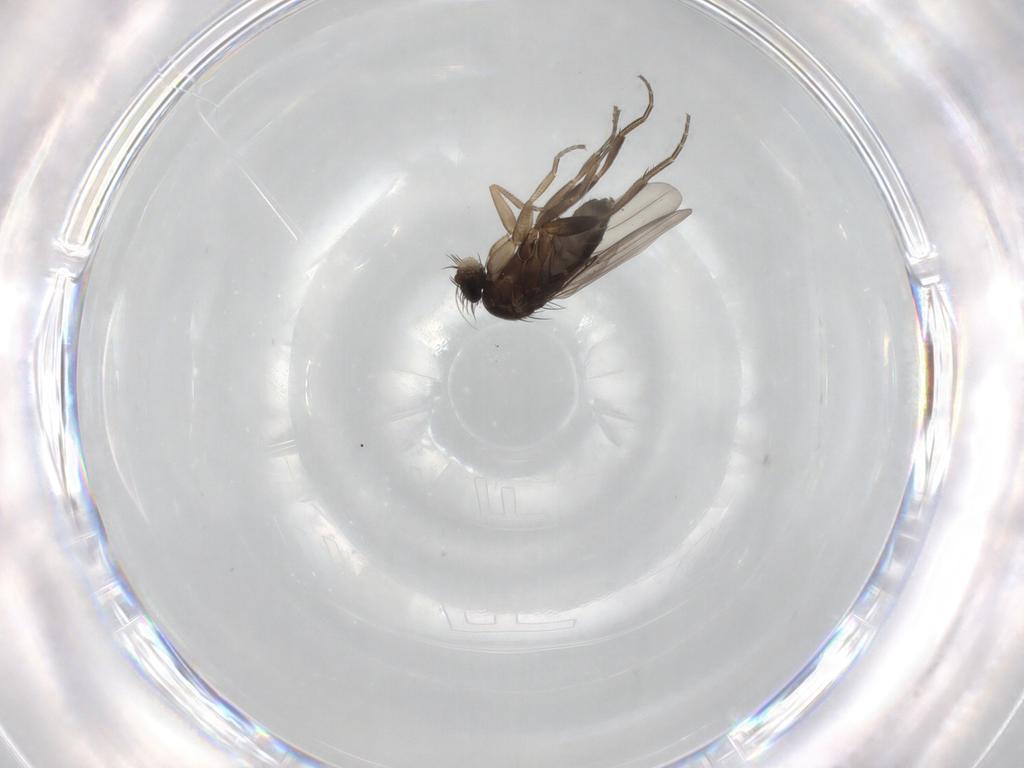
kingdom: Animalia
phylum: Arthropoda
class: Insecta
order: Diptera
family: Phoridae
